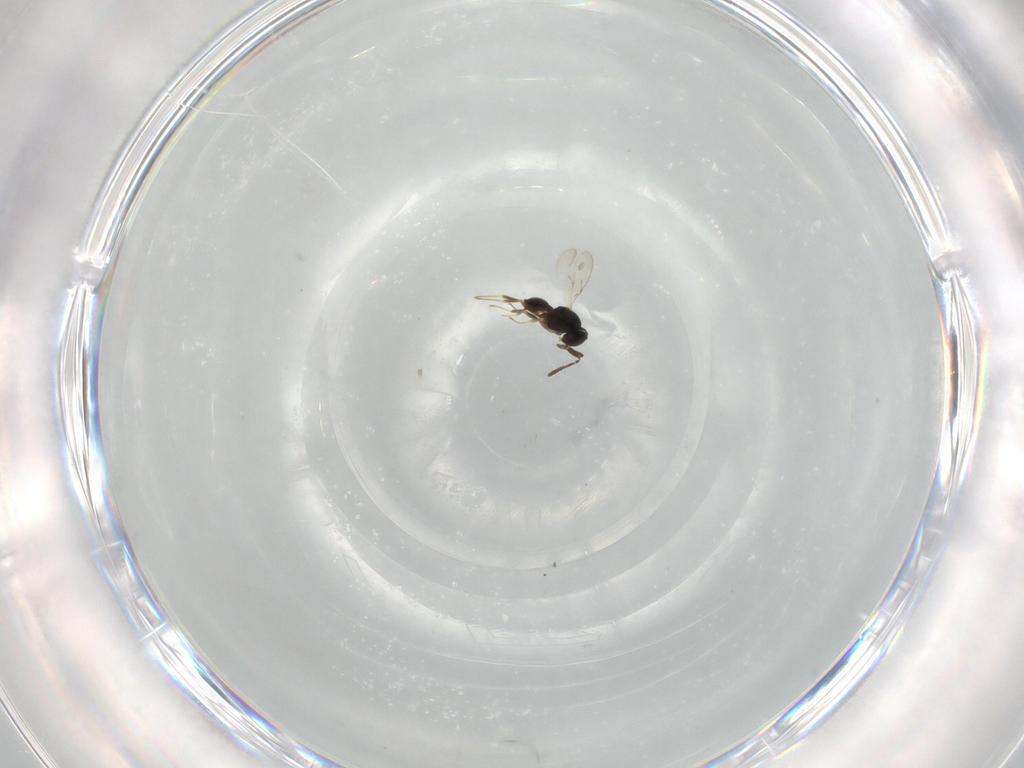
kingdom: Animalia
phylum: Arthropoda
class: Insecta
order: Hymenoptera
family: Scelionidae
